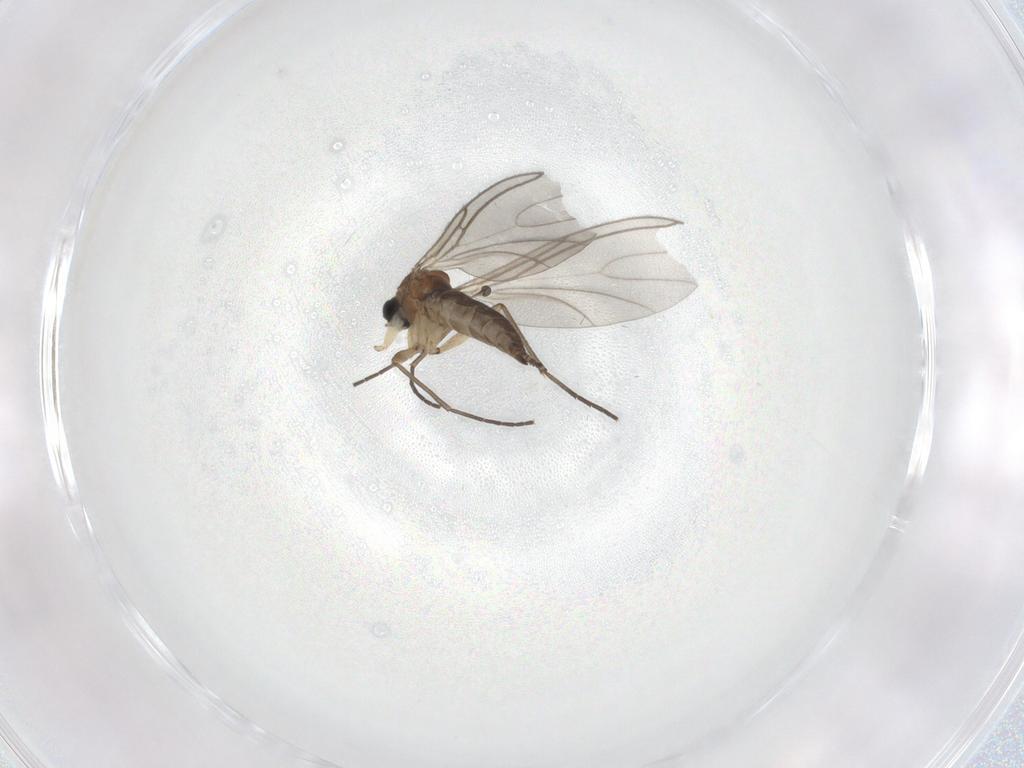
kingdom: Animalia
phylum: Arthropoda
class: Insecta
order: Diptera
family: Sciaridae
